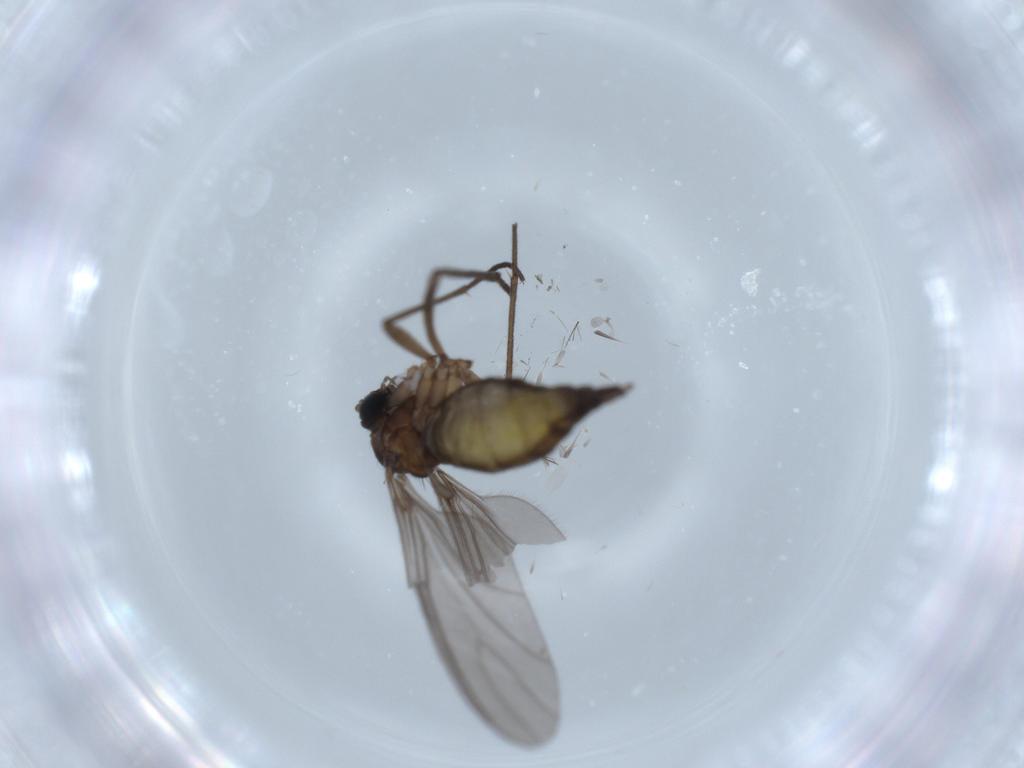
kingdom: Animalia
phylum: Arthropoda
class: Insecta
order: Diptera
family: Sciaridae
